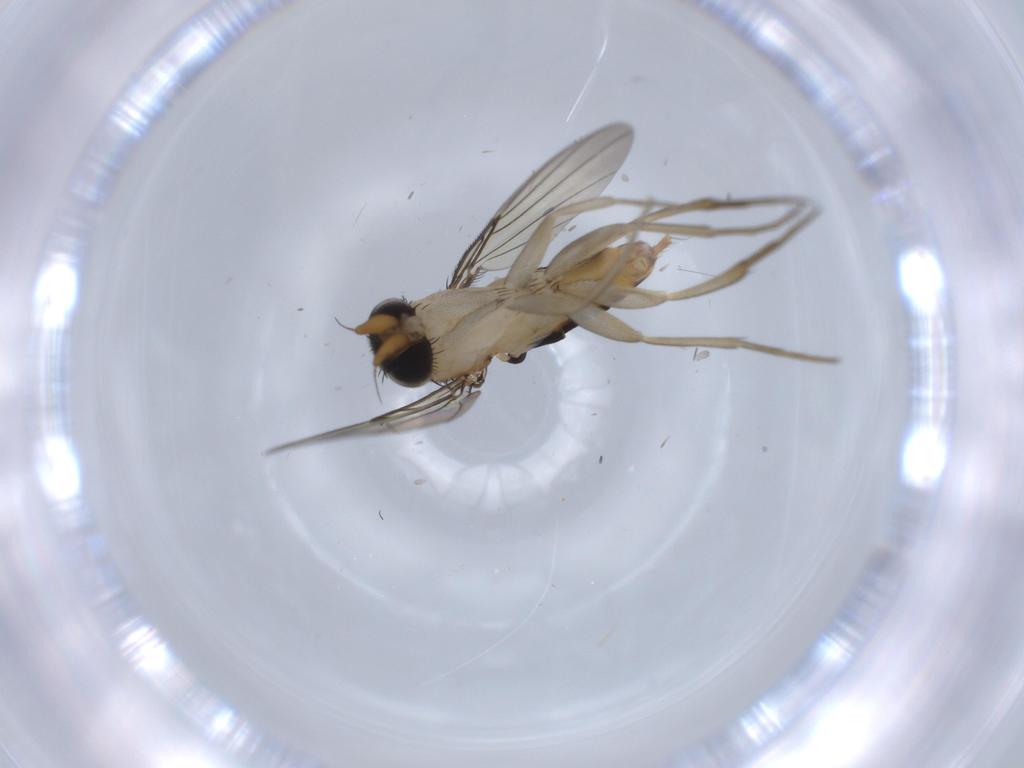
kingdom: Animalia
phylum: Arthropoda
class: Insecta
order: Diptera
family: Phoridae
